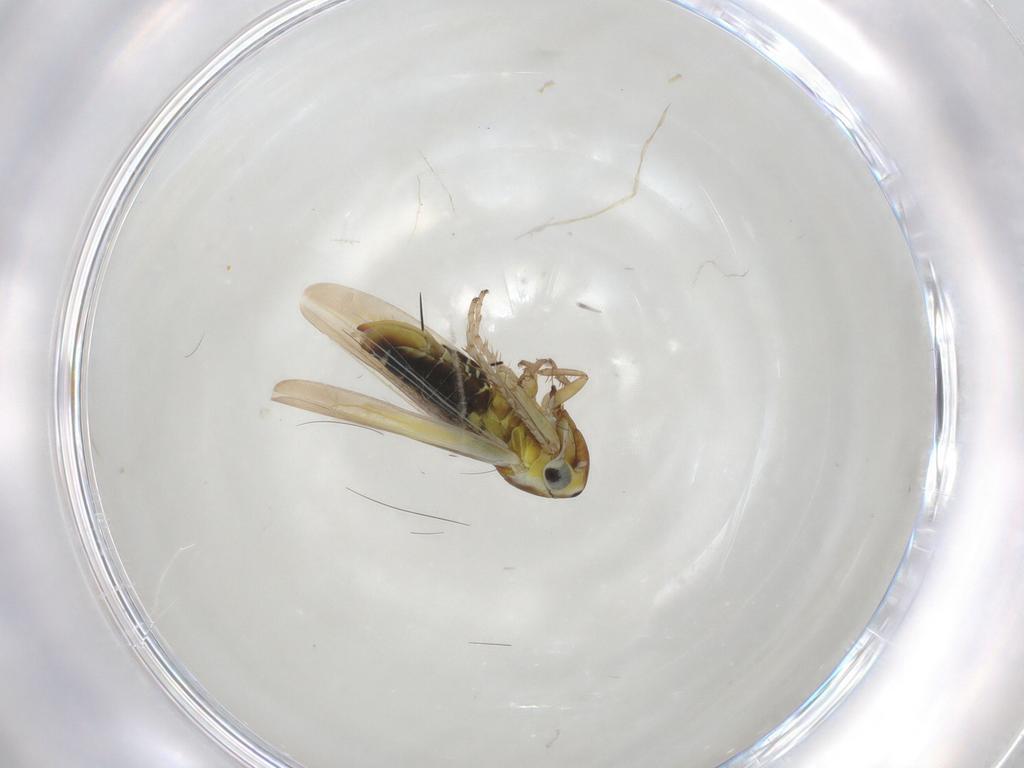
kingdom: Animalia
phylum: Arthropoda
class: Insecta
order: Hemiptera
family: Cicadellidae
